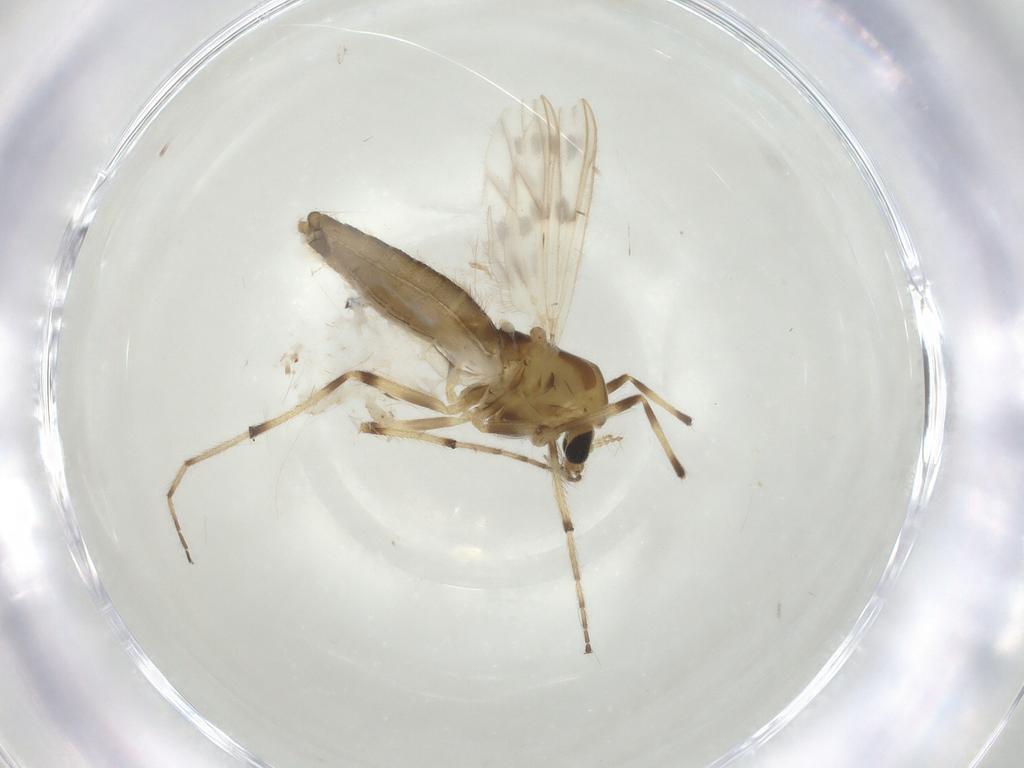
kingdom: Animalia
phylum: Arthropoda
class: Insecta
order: Diptera
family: Chironomidae
